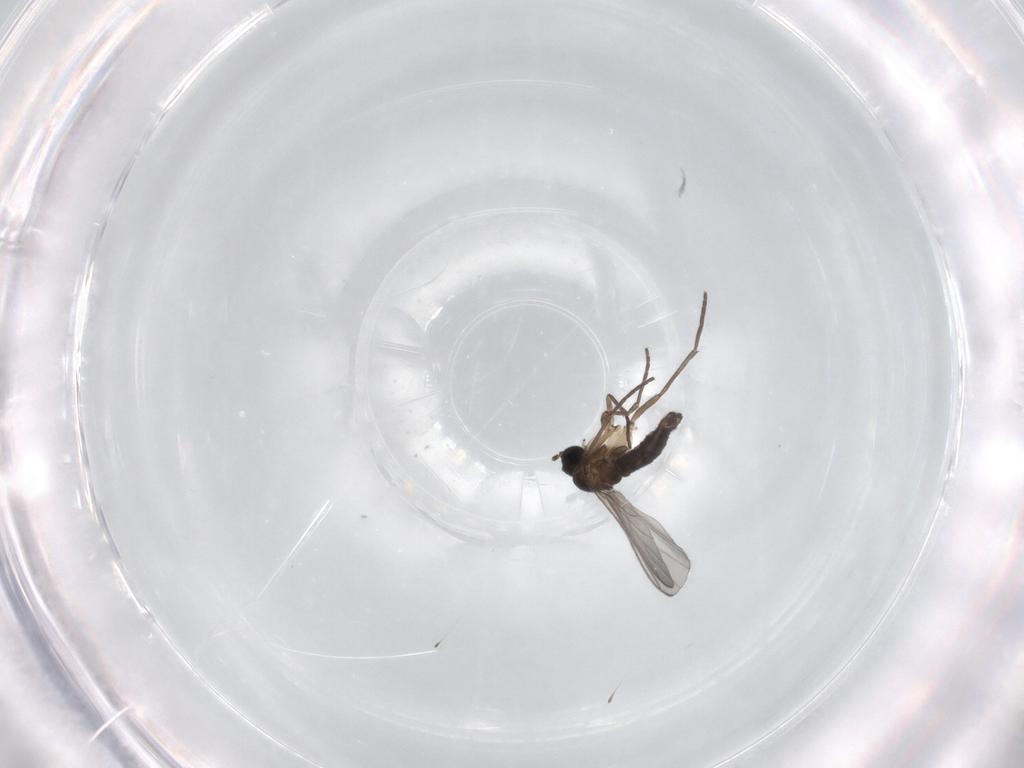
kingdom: Animalia
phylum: Arthropoda
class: Insecta
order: Diptera
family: Sciaridae
